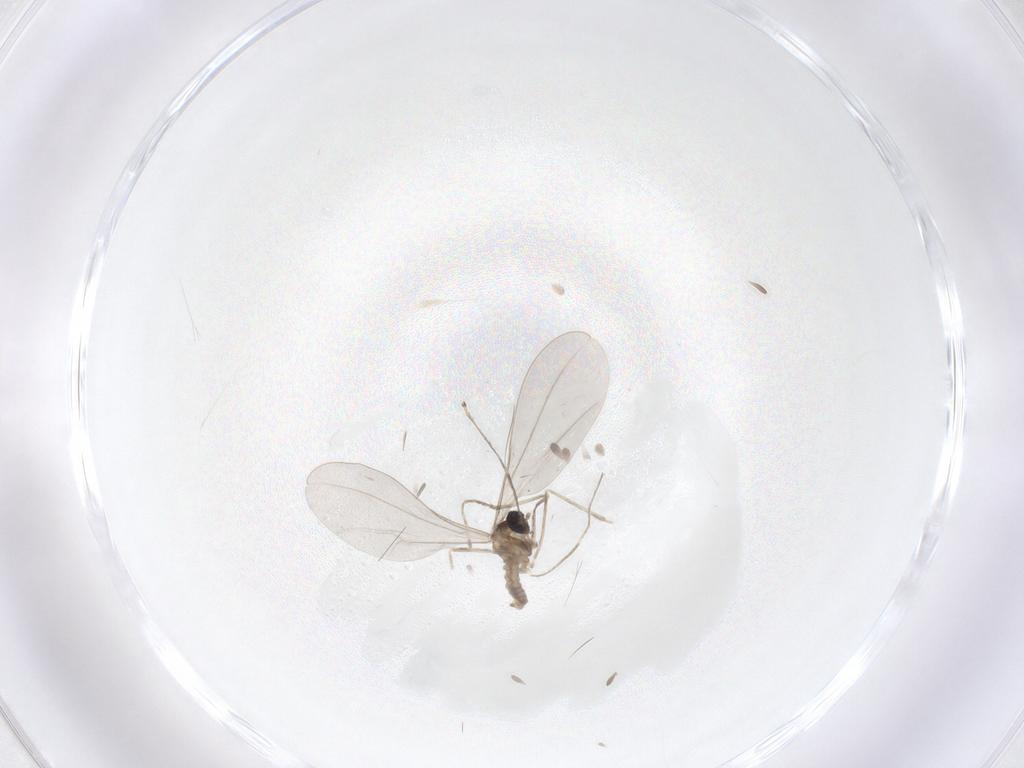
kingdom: Animalia
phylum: Arthropoda
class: Insecta
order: Diptera
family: Cecidomyiidae
